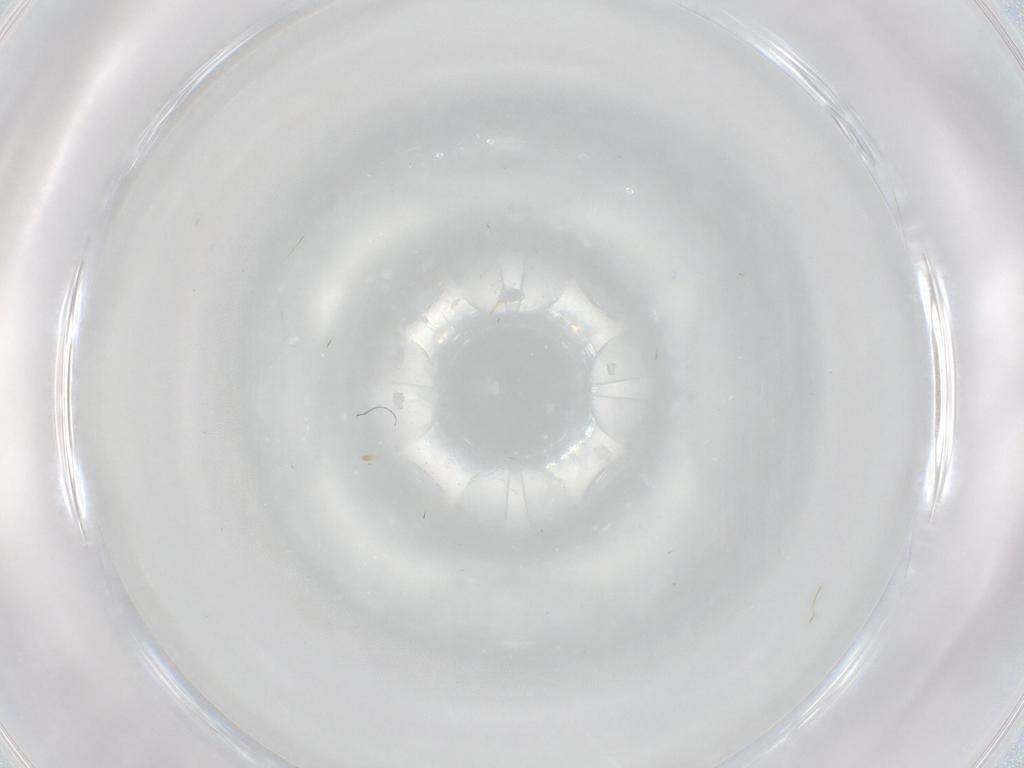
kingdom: Animalia
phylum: Arthropoda
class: Insecta
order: Diptera
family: Cecidomyiidae
